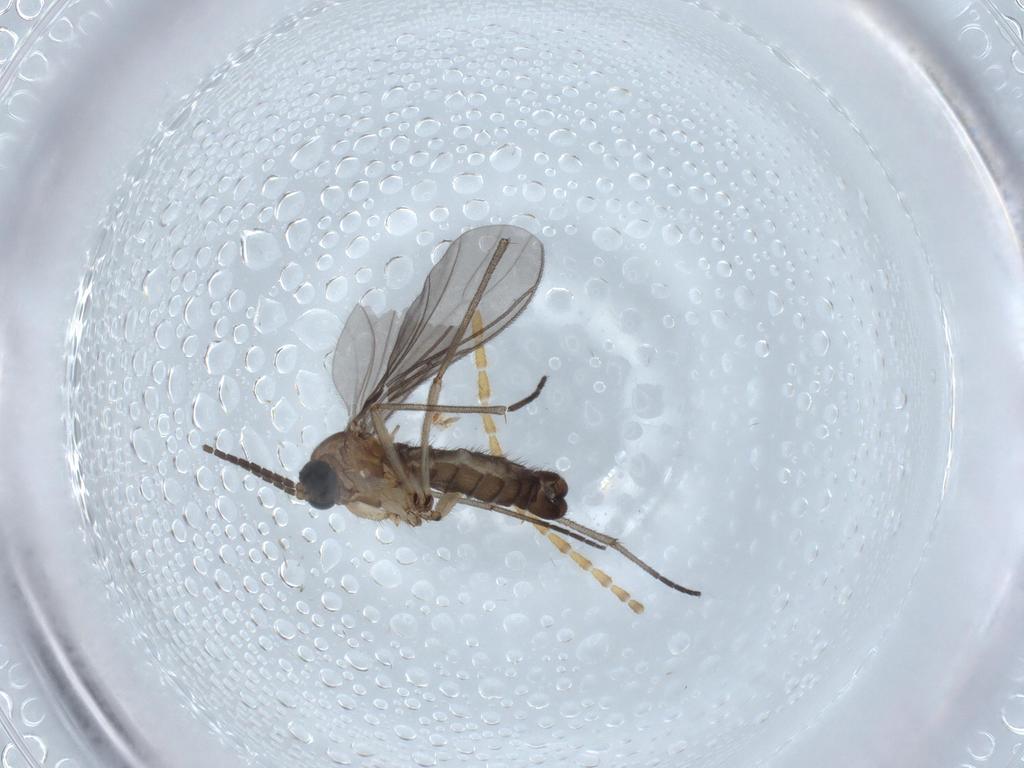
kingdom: Animalia
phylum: Arthropoda
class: Insecta
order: Diptera
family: Sciaridae
